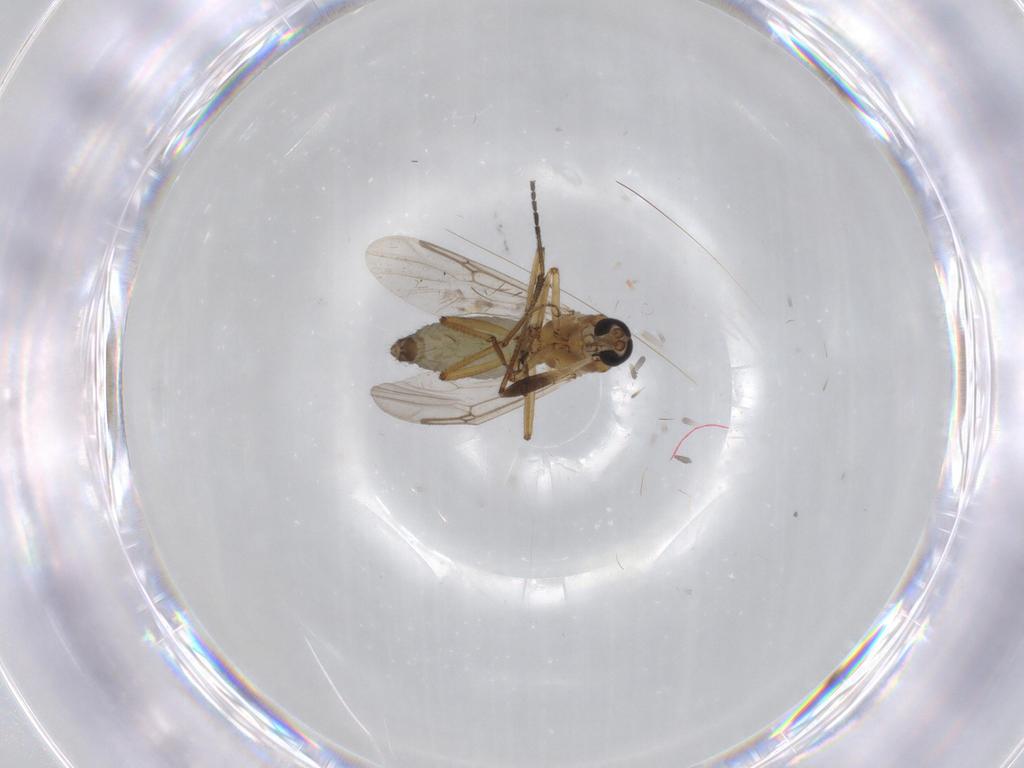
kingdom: Animalia
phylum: Arthropoda
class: Insecta
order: Diptera
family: Ceratopogonidae
